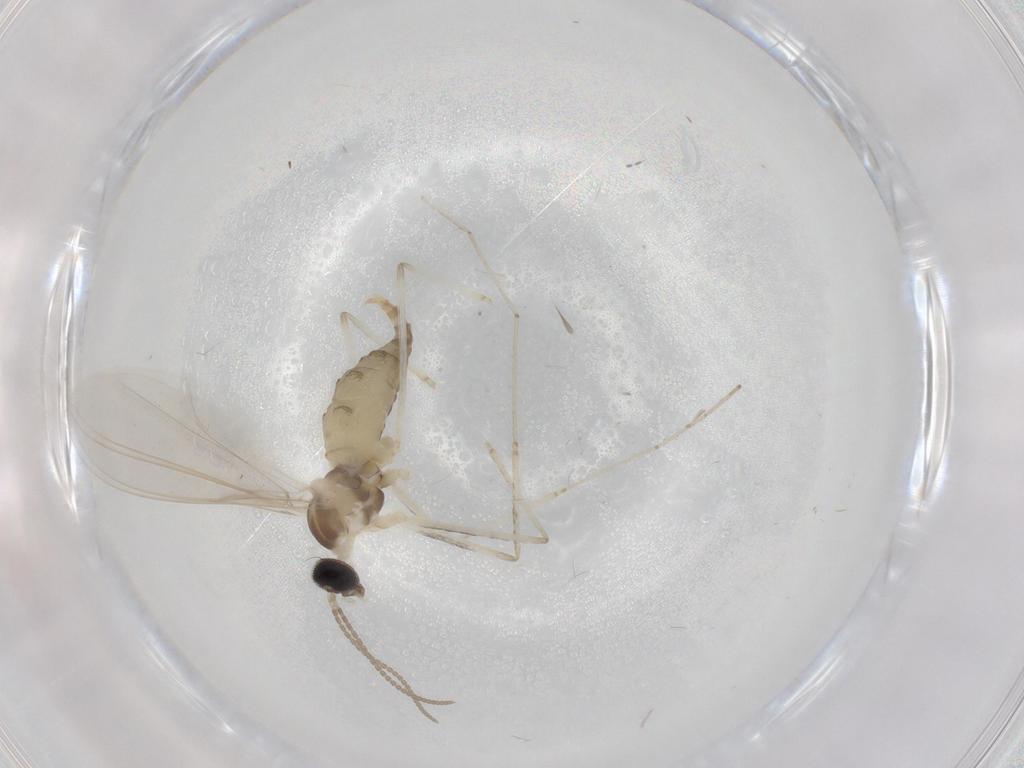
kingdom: Animalia
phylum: Arthropoda
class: Insecta
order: Diptera
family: Cecidomyiidae
